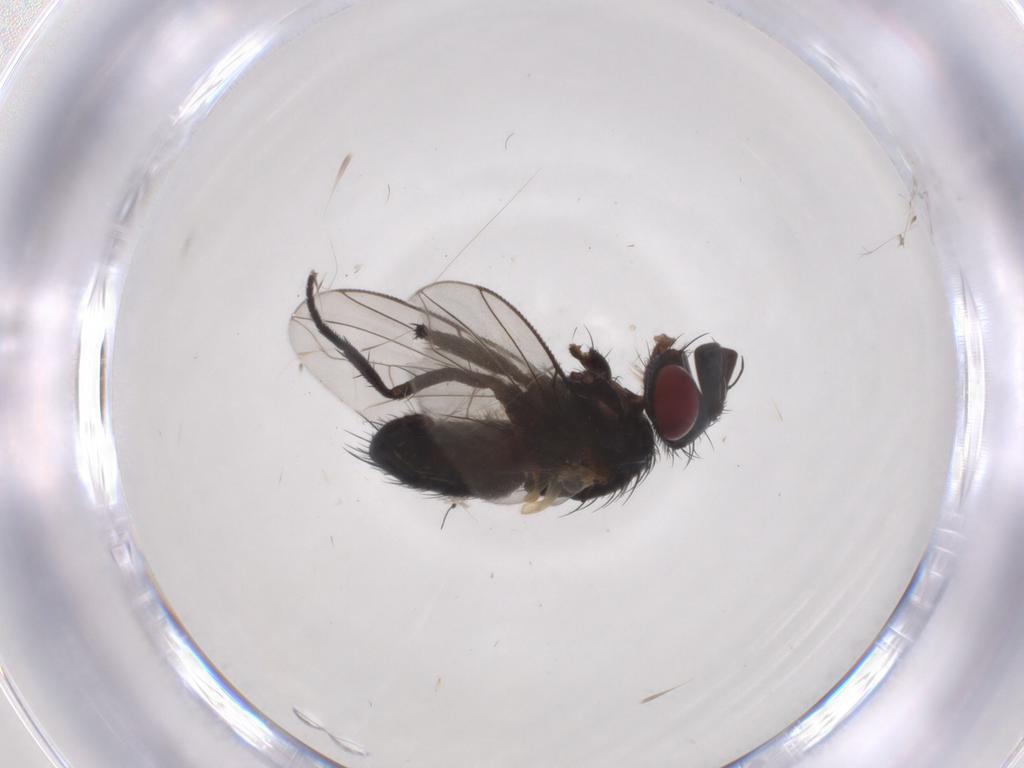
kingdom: Animalia
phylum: Arthropoda
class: Insecta
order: Diptera
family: Tachinidae
